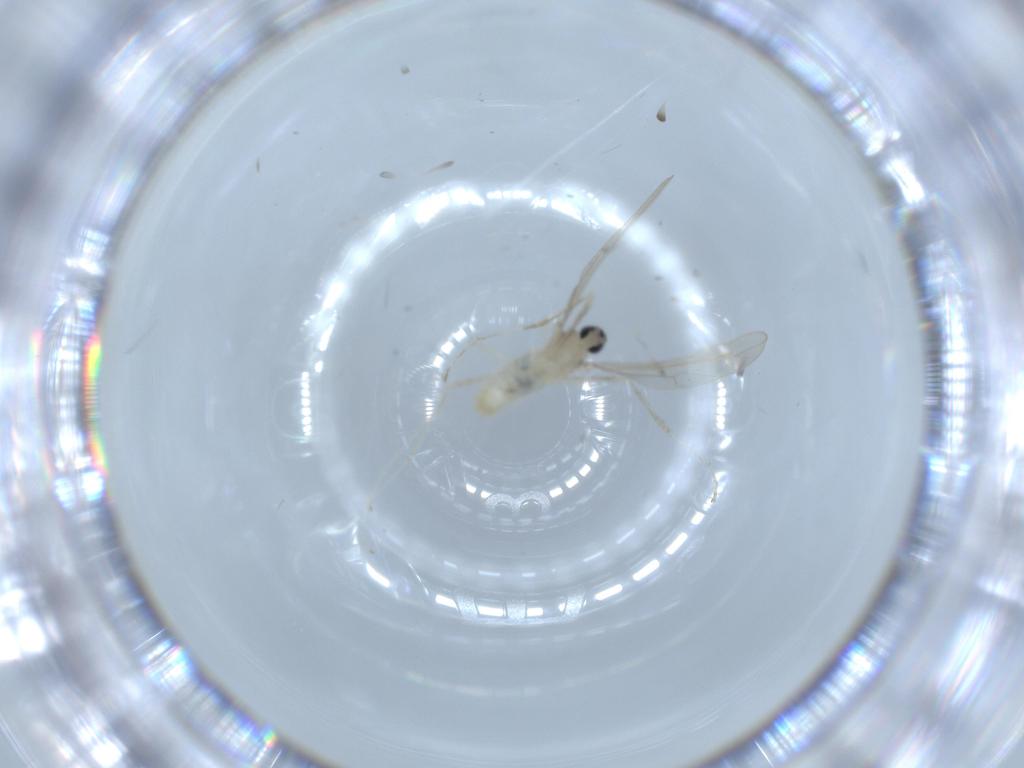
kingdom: Animalia
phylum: Arthropoda
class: Insecta
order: Diptera
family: Cecidomyiidae
